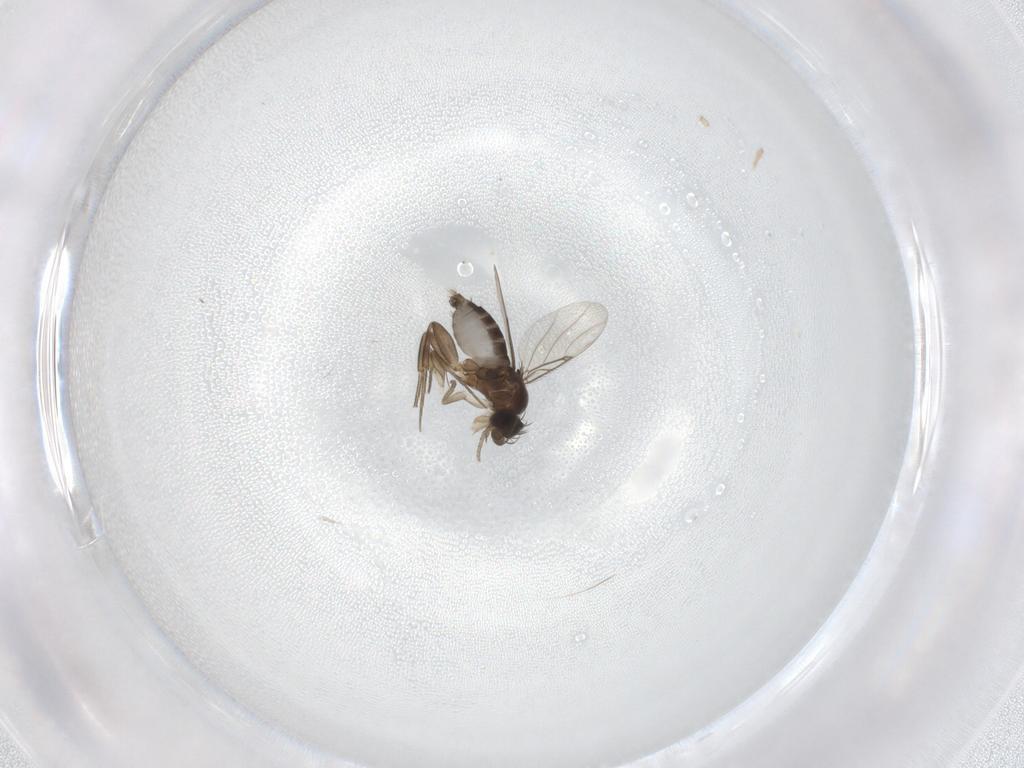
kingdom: Animalia
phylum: Arthropoda
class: Insecta
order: Diptera
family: Phoridae
